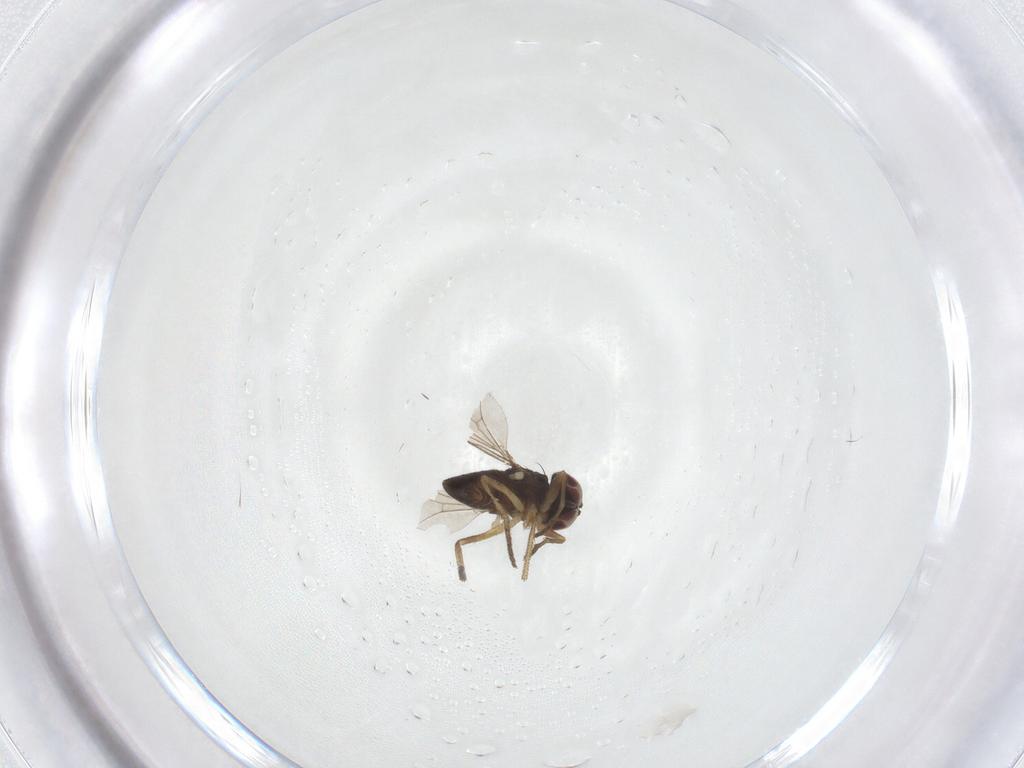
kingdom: Animalia
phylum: Arthropoda
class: Insecta
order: Diptera
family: Dolichopodidae
